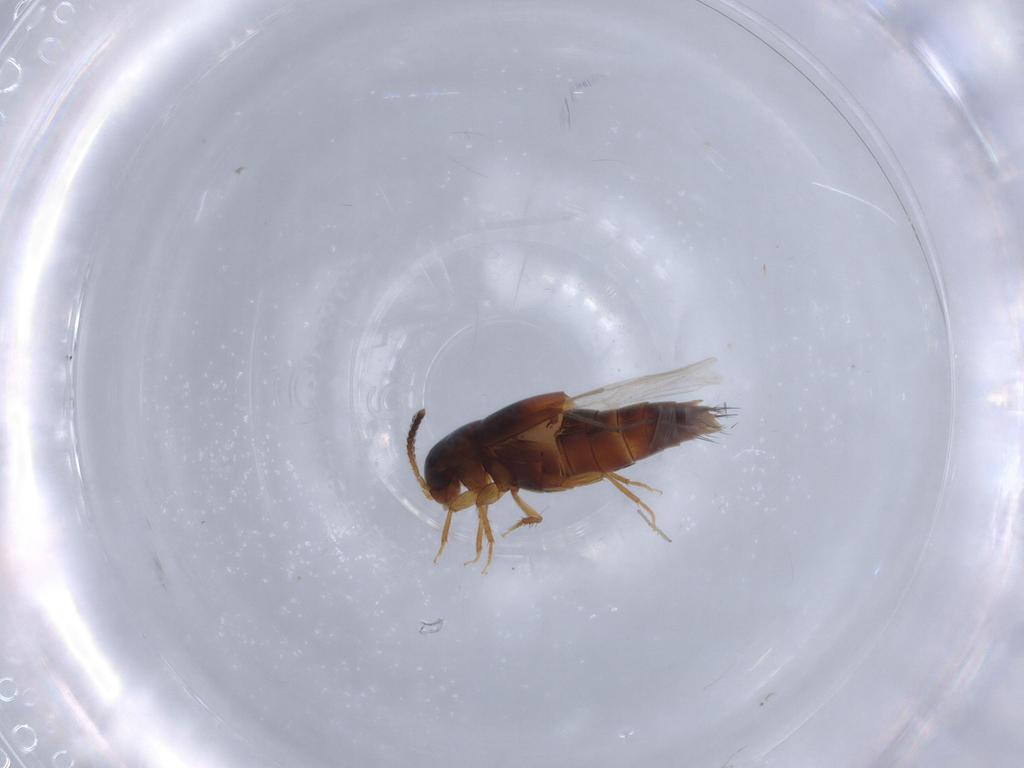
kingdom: Animalia
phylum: Arthropoda
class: Insecta
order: Coleoptera
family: Staphylinidae
